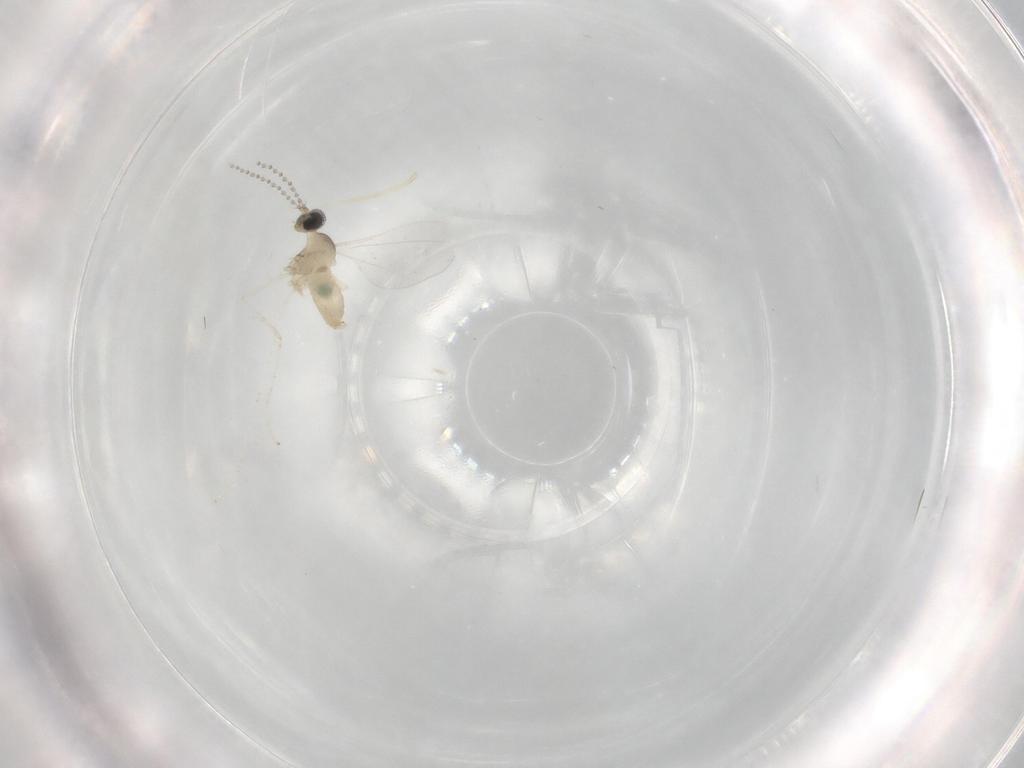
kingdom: Animalia
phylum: Arthropoda
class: Insecta
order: Diptera
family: Cecidomyiidae
